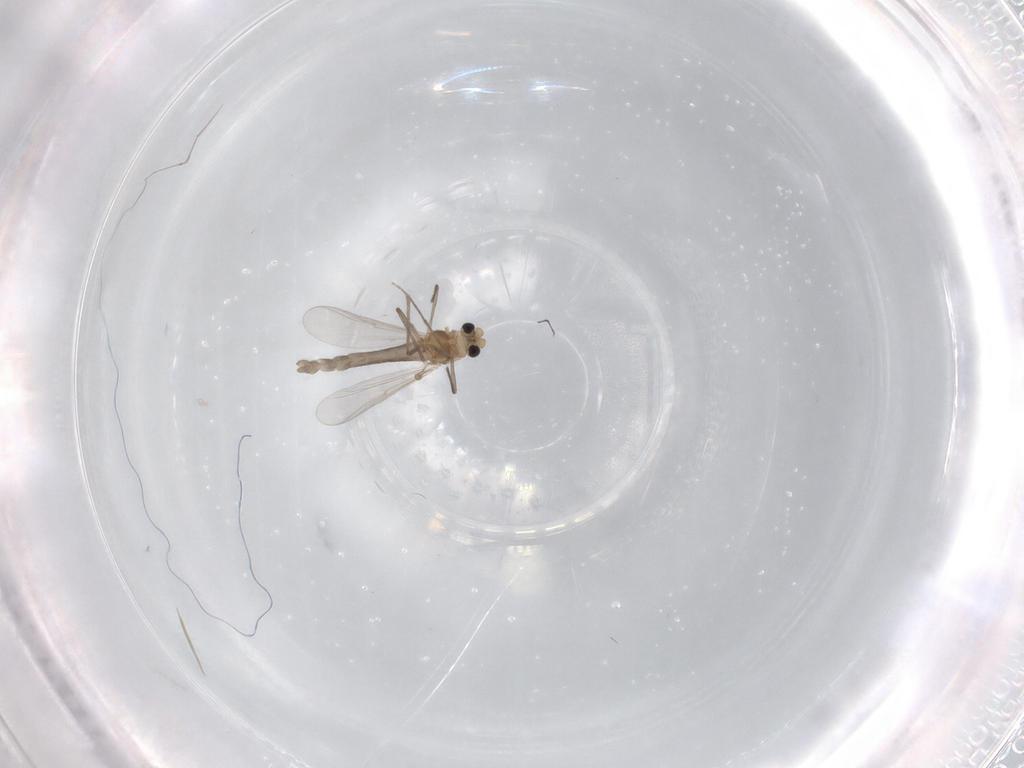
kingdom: Animalia
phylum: Arthropoda
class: Insecta
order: Diptera
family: Chironomidae
